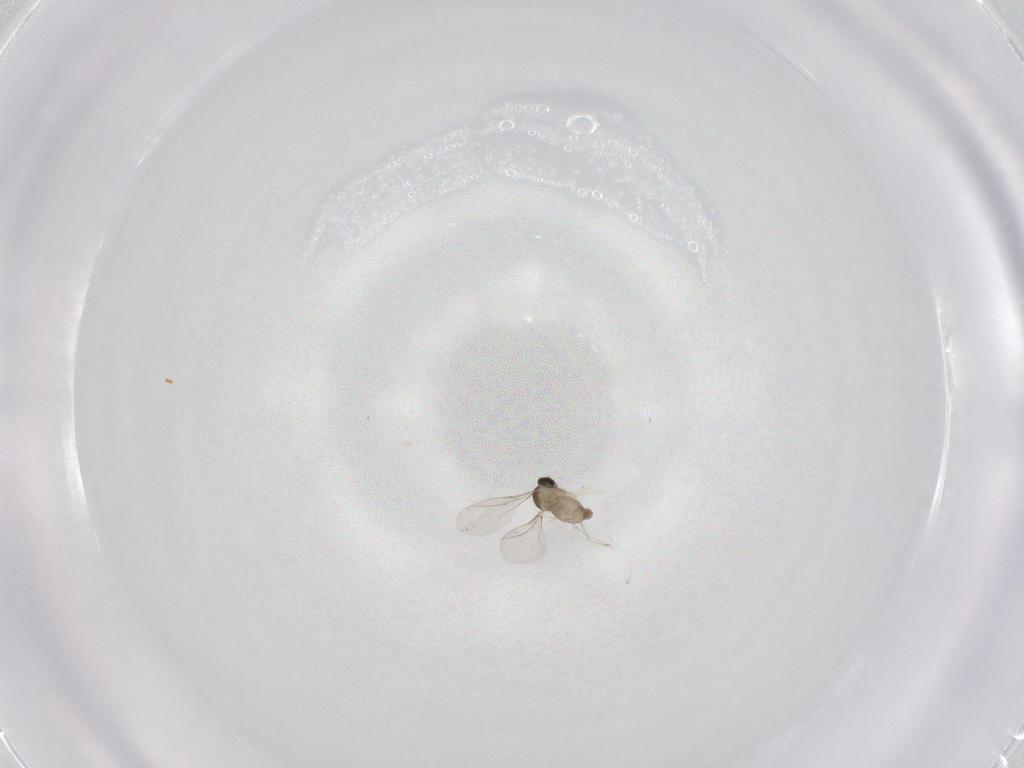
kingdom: Animalia
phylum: Arthropoda
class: Insecta
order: Diptera
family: Cecidomyiidae
